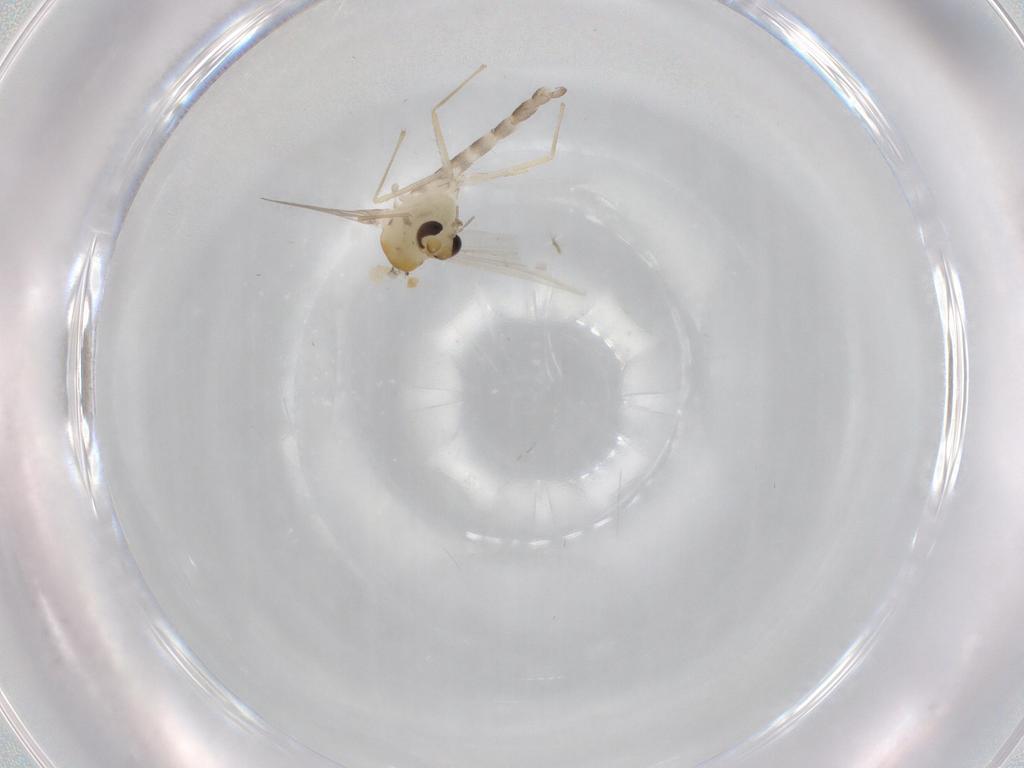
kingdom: Animalia
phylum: Arthropoda
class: Insecta
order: Diptera
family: Chironomidae
